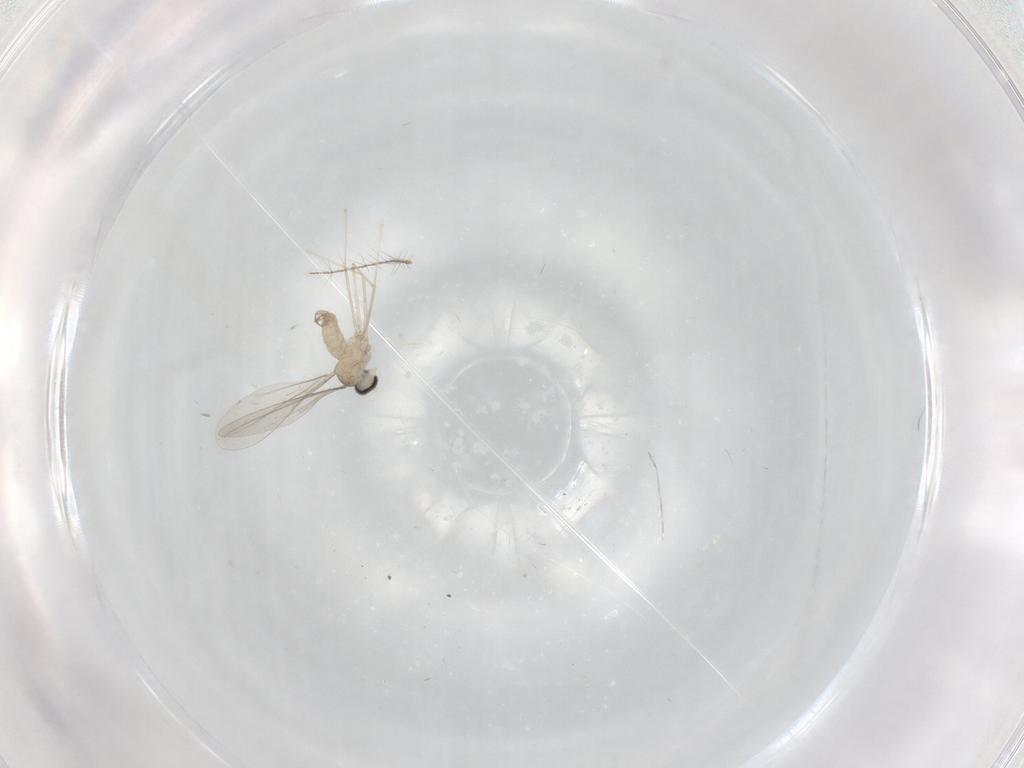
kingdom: Animalia
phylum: Arthropoda
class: Insecta
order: Diptera
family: Cecidomyiidae
